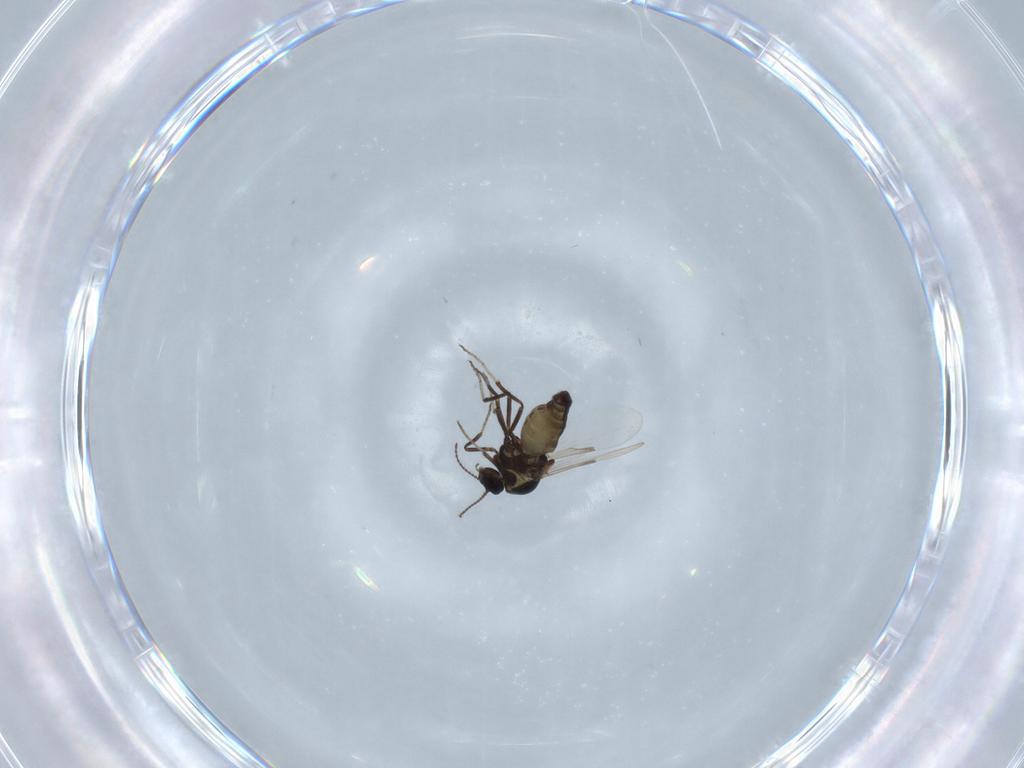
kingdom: Animalia
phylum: Arthropoda
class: Insecta
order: Diptera
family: Ceratopogonidae
